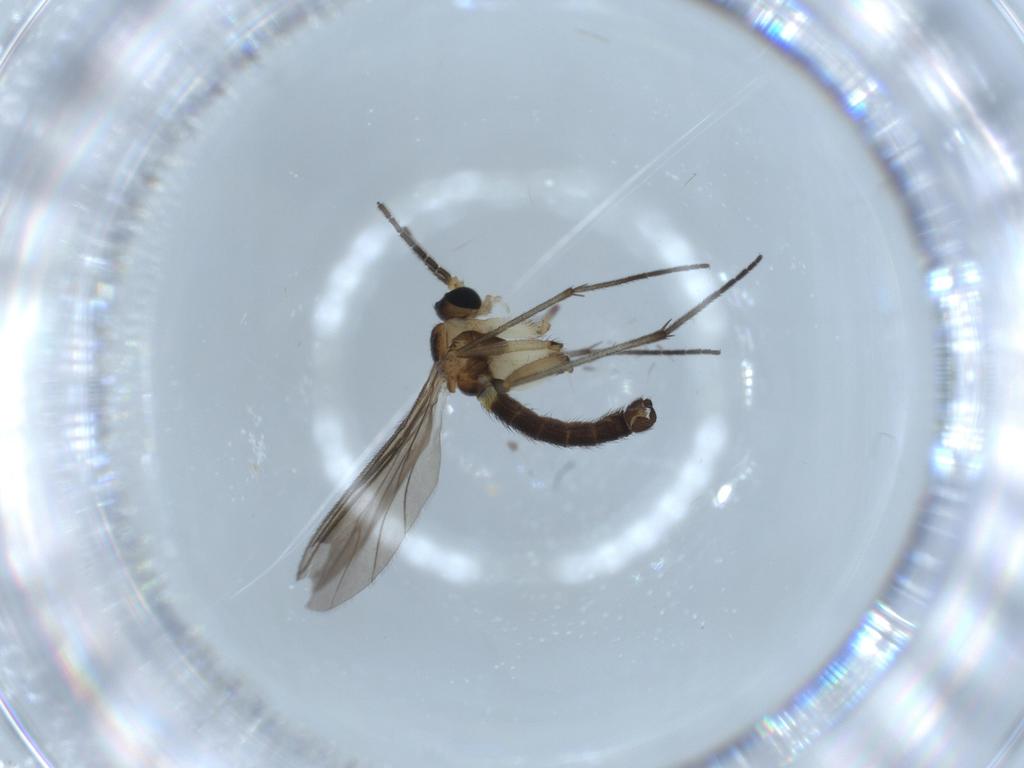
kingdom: Animalia
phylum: Arthropoda
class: Insecta
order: Diptera
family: Sciaridae
